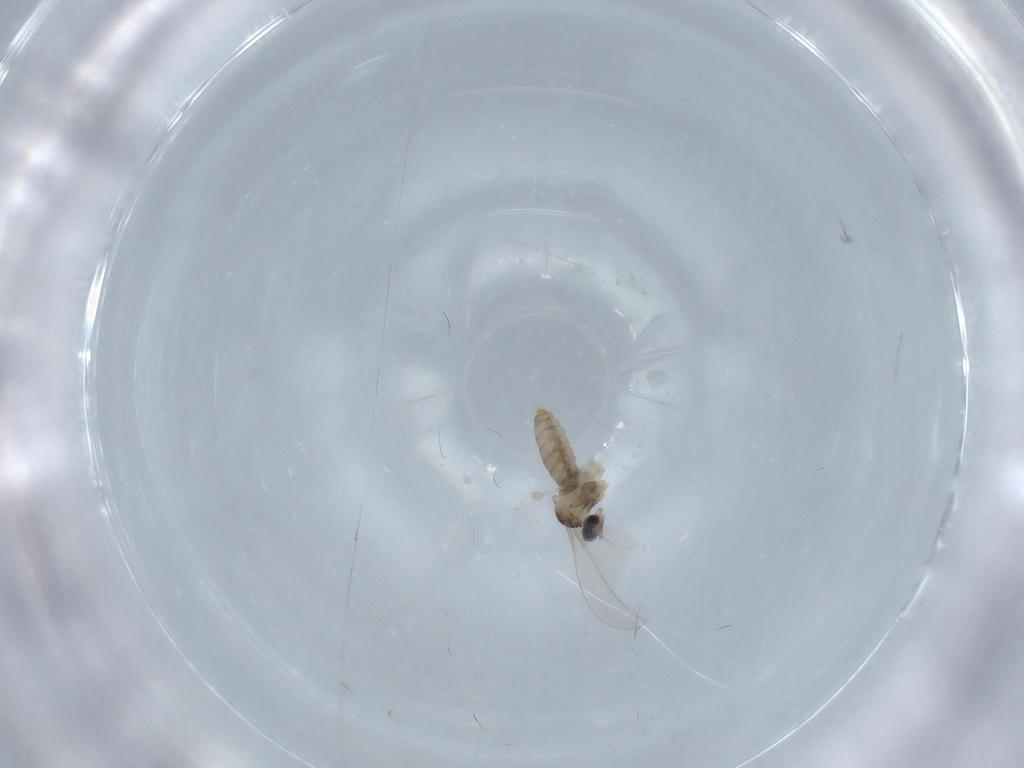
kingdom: Animalia
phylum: Arthropoda
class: Insecta
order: Diptera
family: Cecidomyiidae
